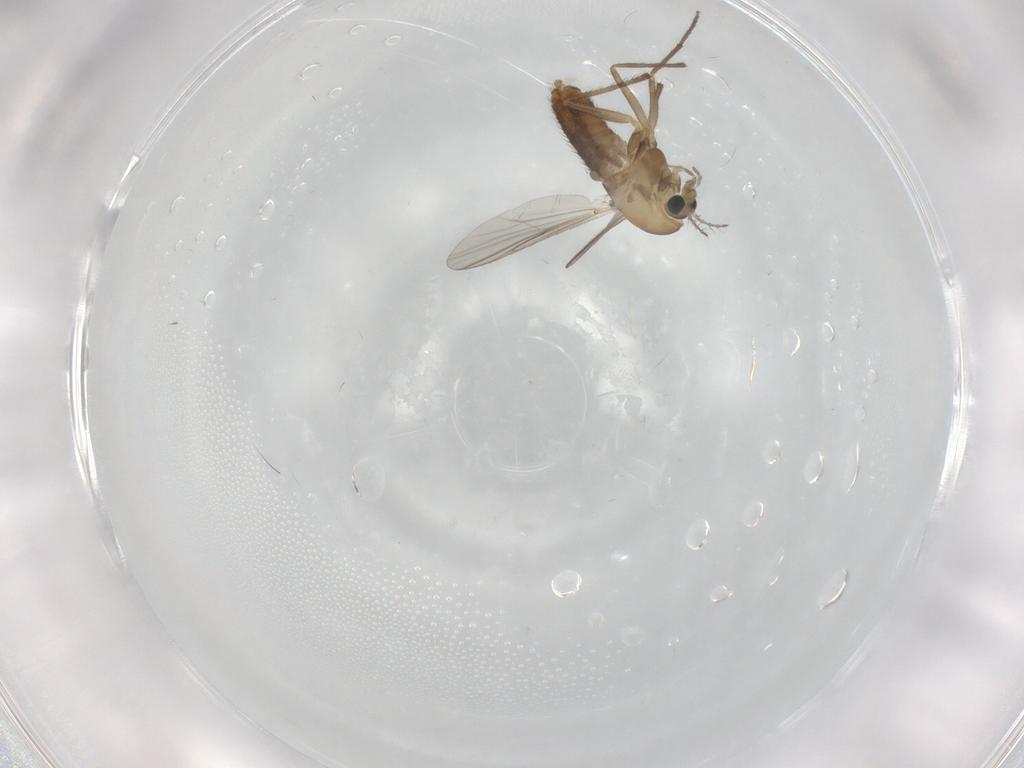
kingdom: Animalia
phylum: Arthropoda
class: Insecta
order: Diptera
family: Chironomidae
